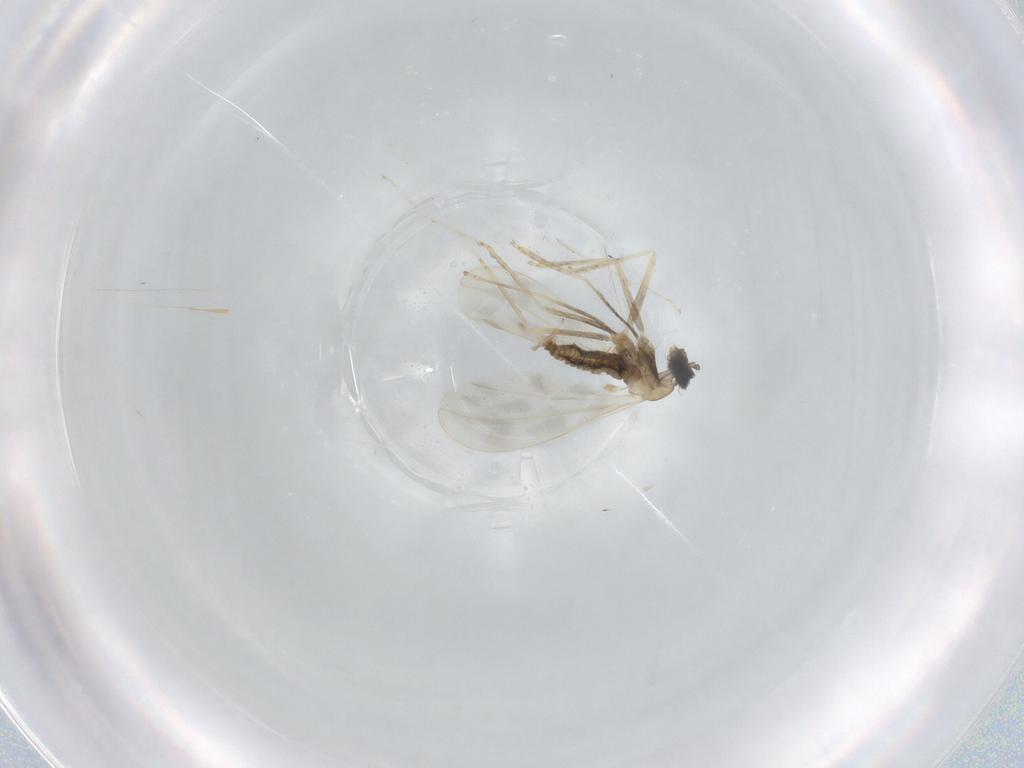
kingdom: Animalia
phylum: Arthropoda
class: Insecta
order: Diptera
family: Cecidomyiidae
